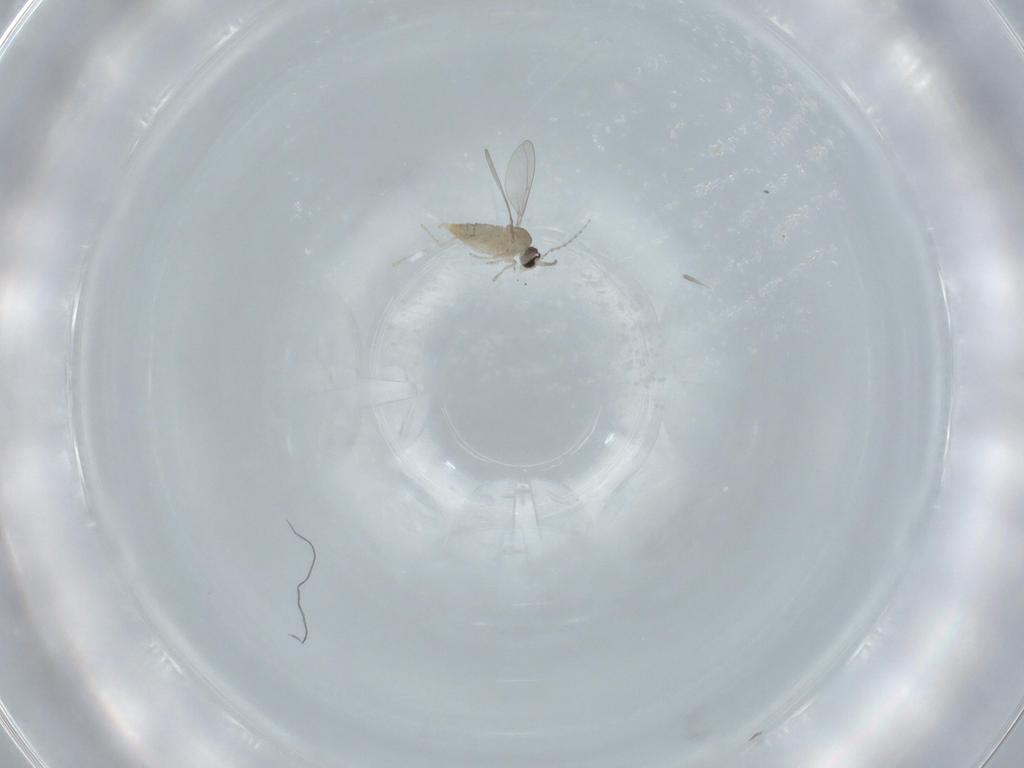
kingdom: Animalia
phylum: Arthropoda
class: Insecta
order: Diptera
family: Cecidomyiidae
